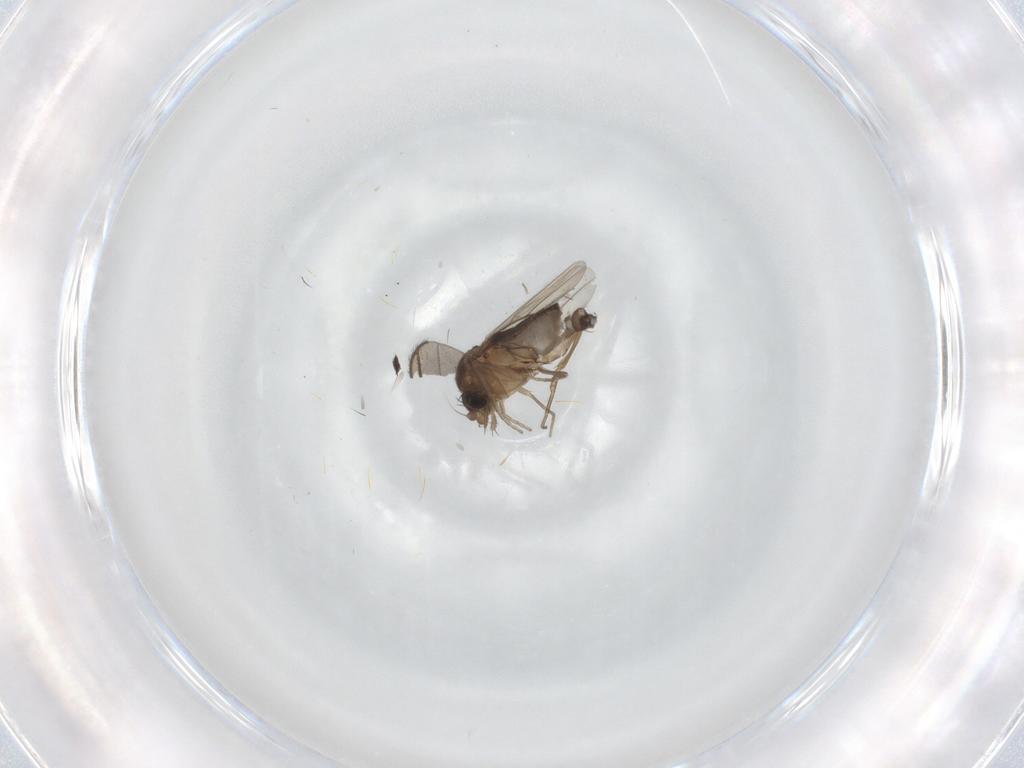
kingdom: Animalia
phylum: Arthropoda
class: Insecta
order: Diptera
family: Phoridae
